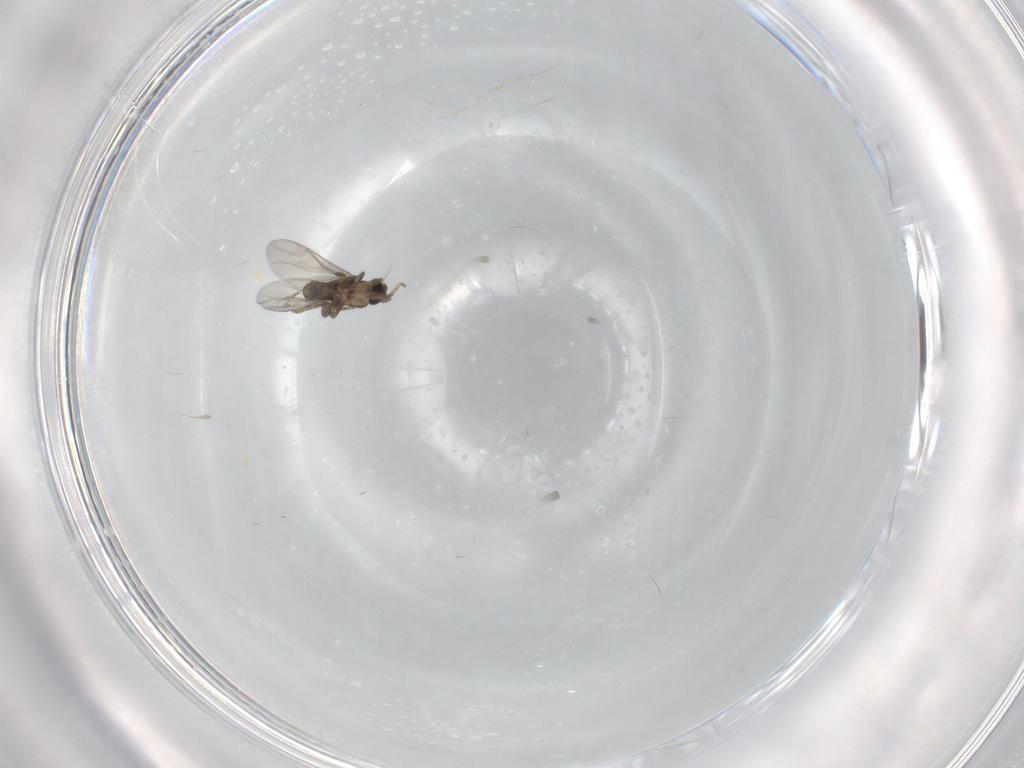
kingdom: Animalia
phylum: Arthropoda
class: Insecta
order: Diptera
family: Ceratopogonidae
